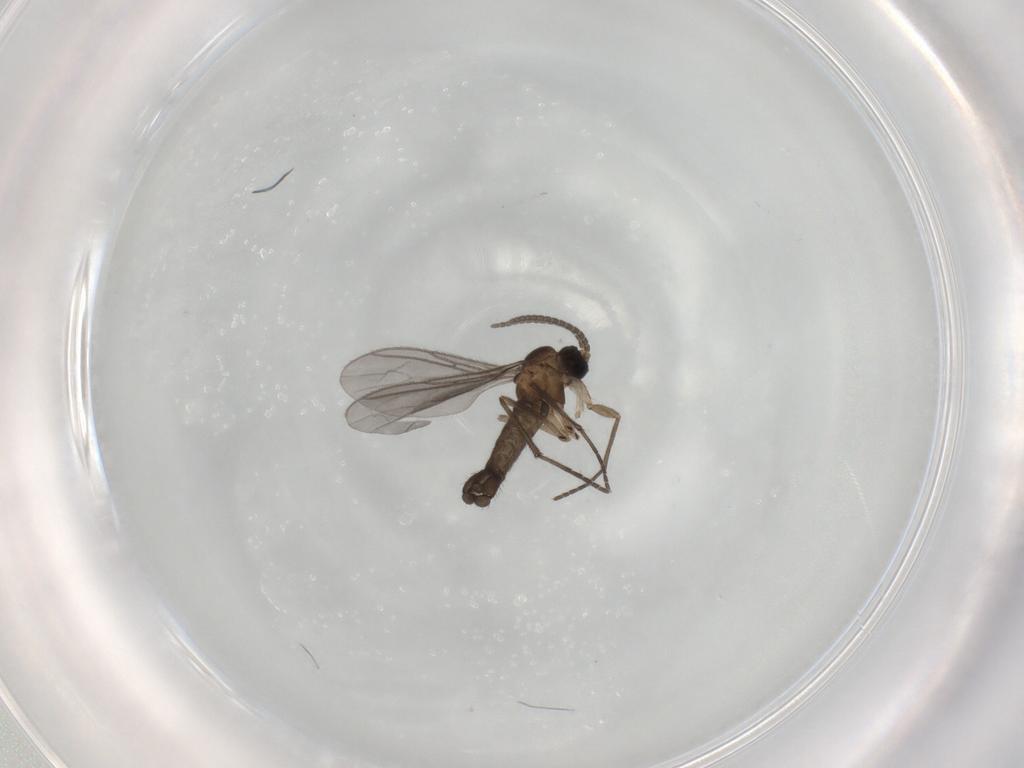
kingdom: Animalia
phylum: Arthropoda
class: Insecta
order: Diptera
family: Sciaridae
